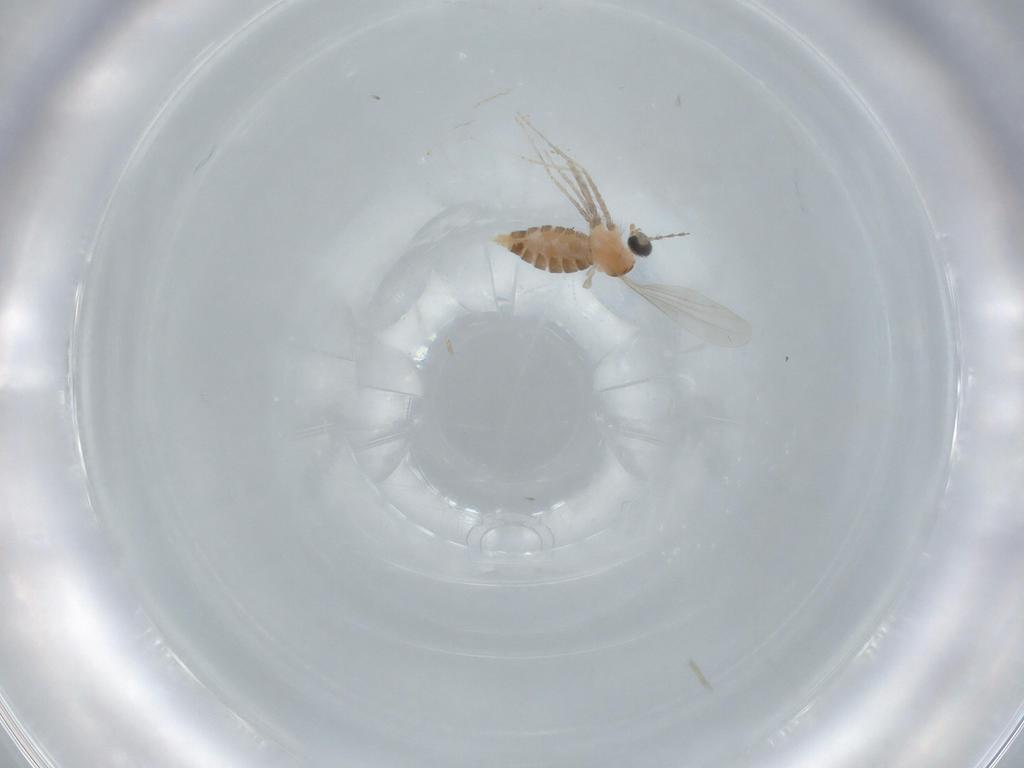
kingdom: Animalia
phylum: Arthropoda
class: Insecta
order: Diptera
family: Cecidomyiidae
